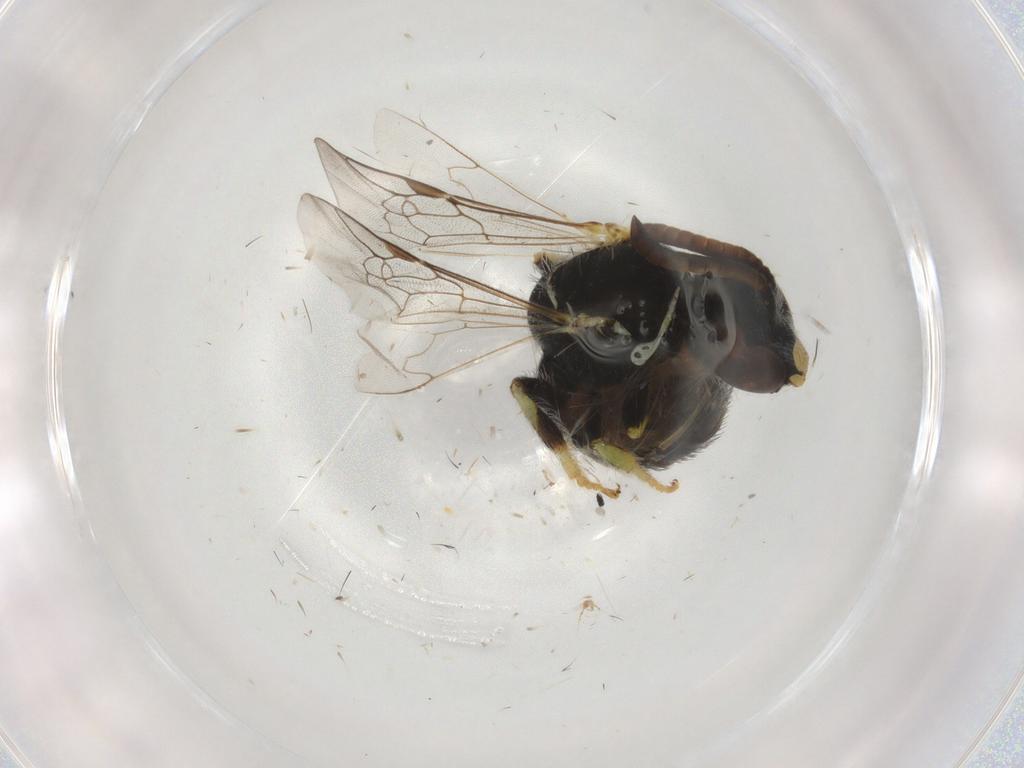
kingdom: Animalia
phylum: Arthropoda
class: Insecta
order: Hymenoptera
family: Formicidae
